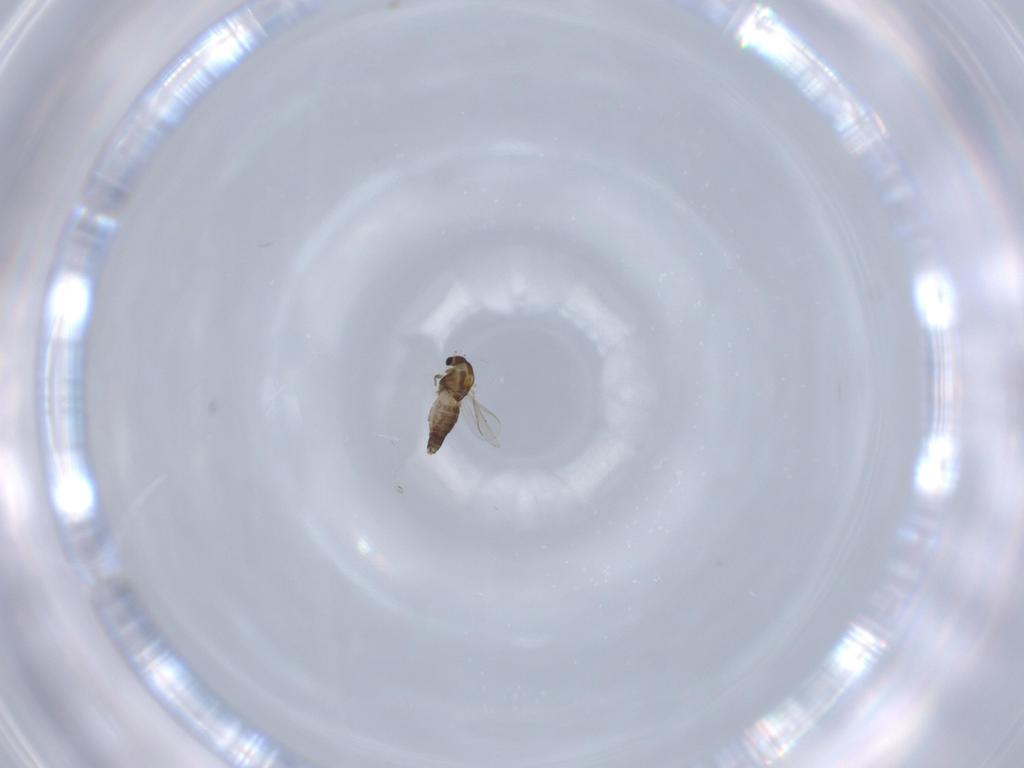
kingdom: Animalia
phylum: Arthropoda
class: Insecta
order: Diptera
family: Chironomidae
